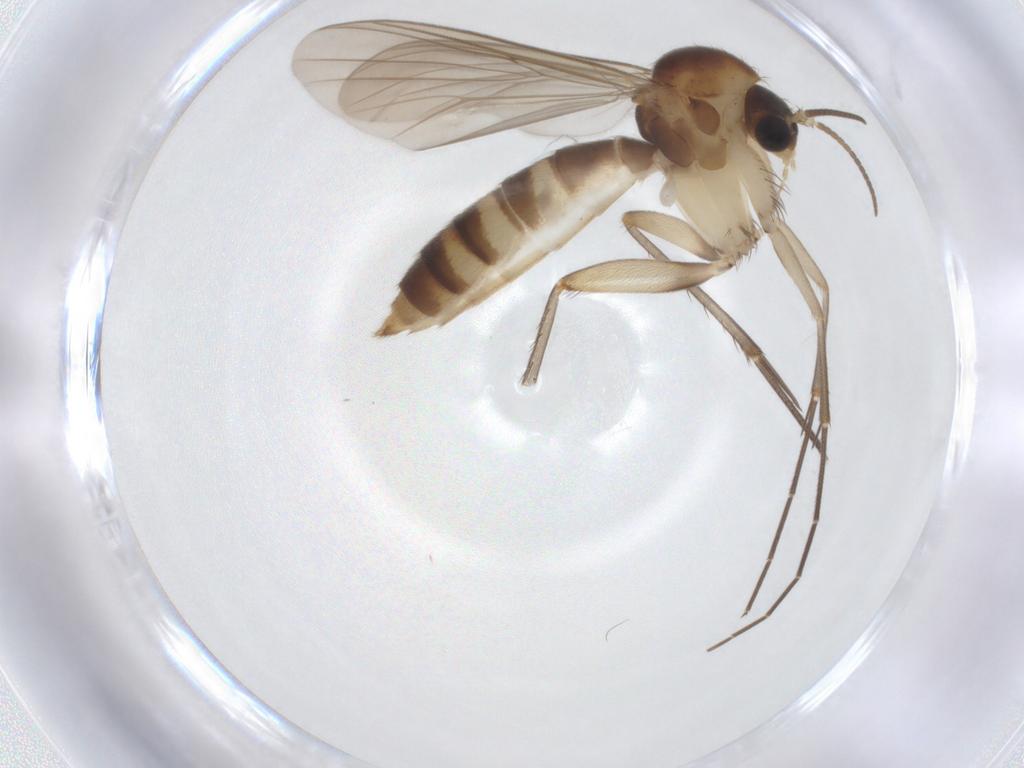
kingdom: Animalia
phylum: Arthropoda
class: Insecta
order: Diptera
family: Mycetophilidae
